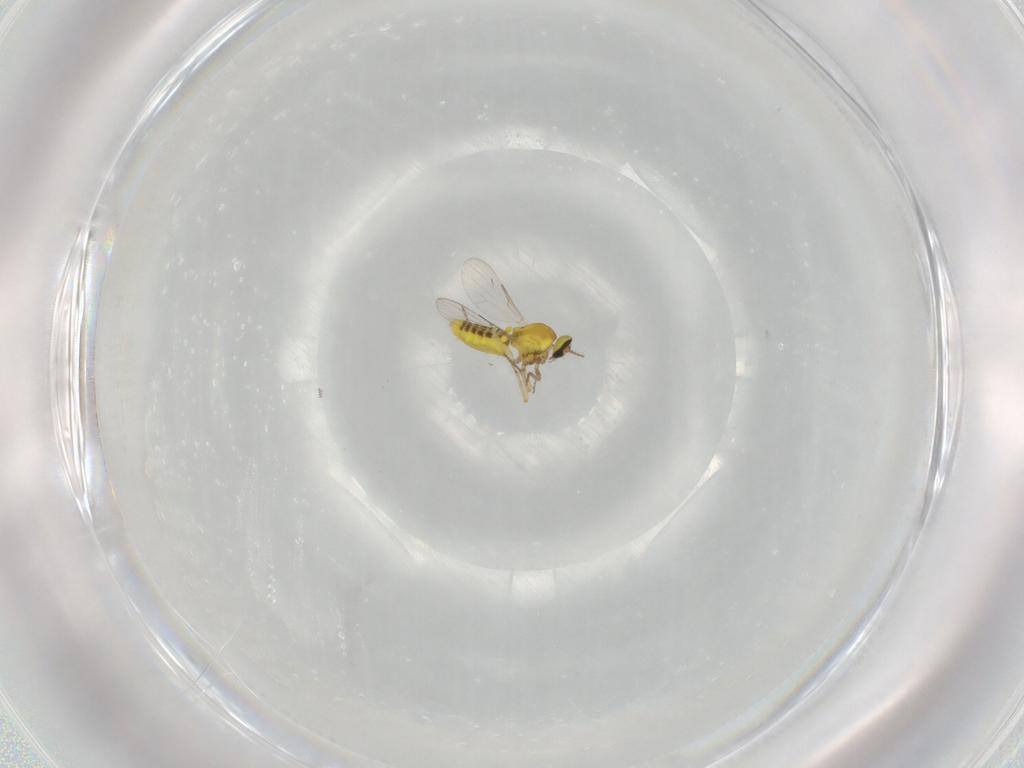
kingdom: Animalia
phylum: Arthropoda
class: Insecta
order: Diptera
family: Ceratopogonidae
